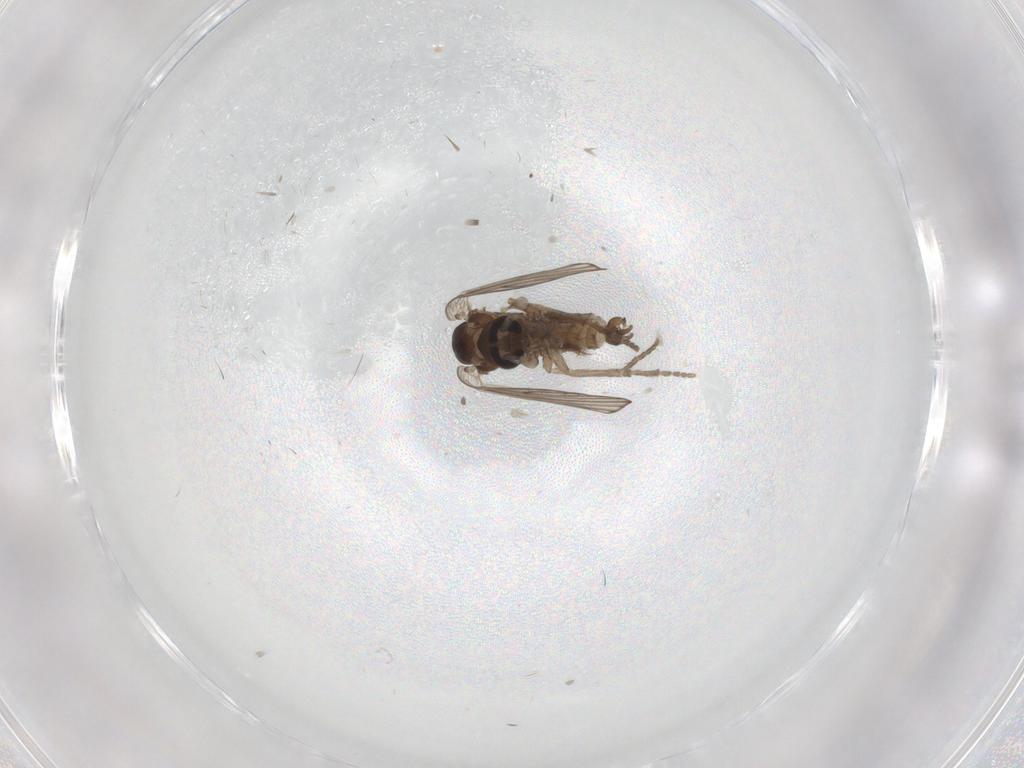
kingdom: Animalia
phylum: Arthropoda
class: Insecta
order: Diptera
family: Psychodidae
